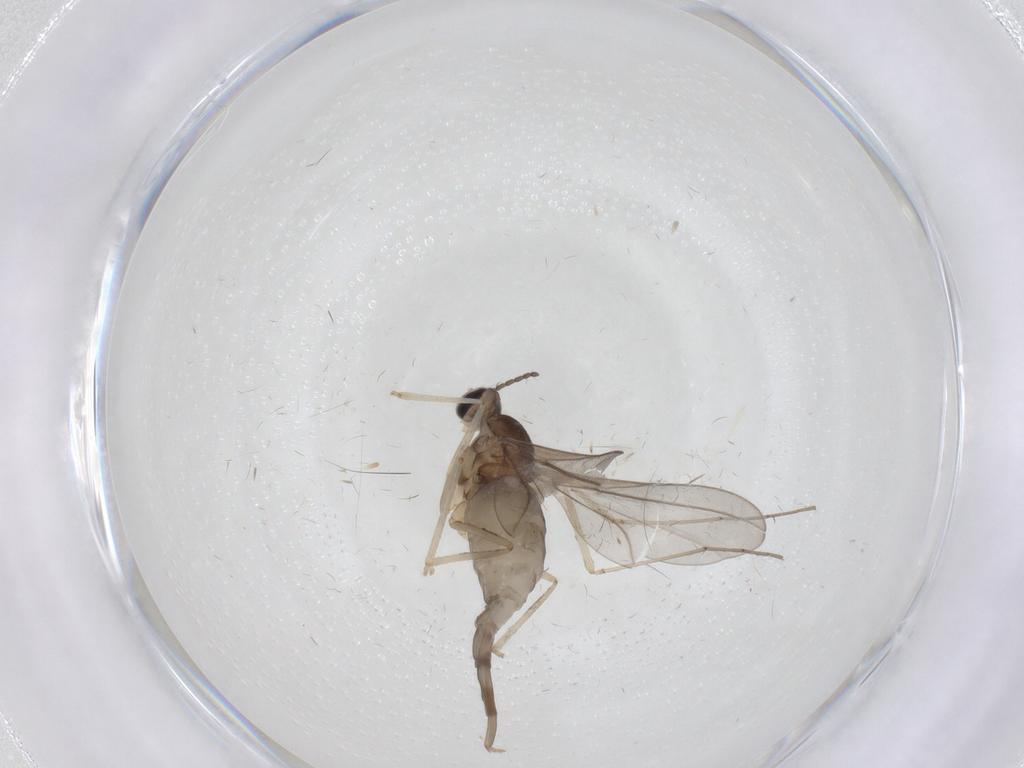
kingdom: Animalia
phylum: Arthropoda
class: Insecta
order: Diptera
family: Cecidomyiidae
